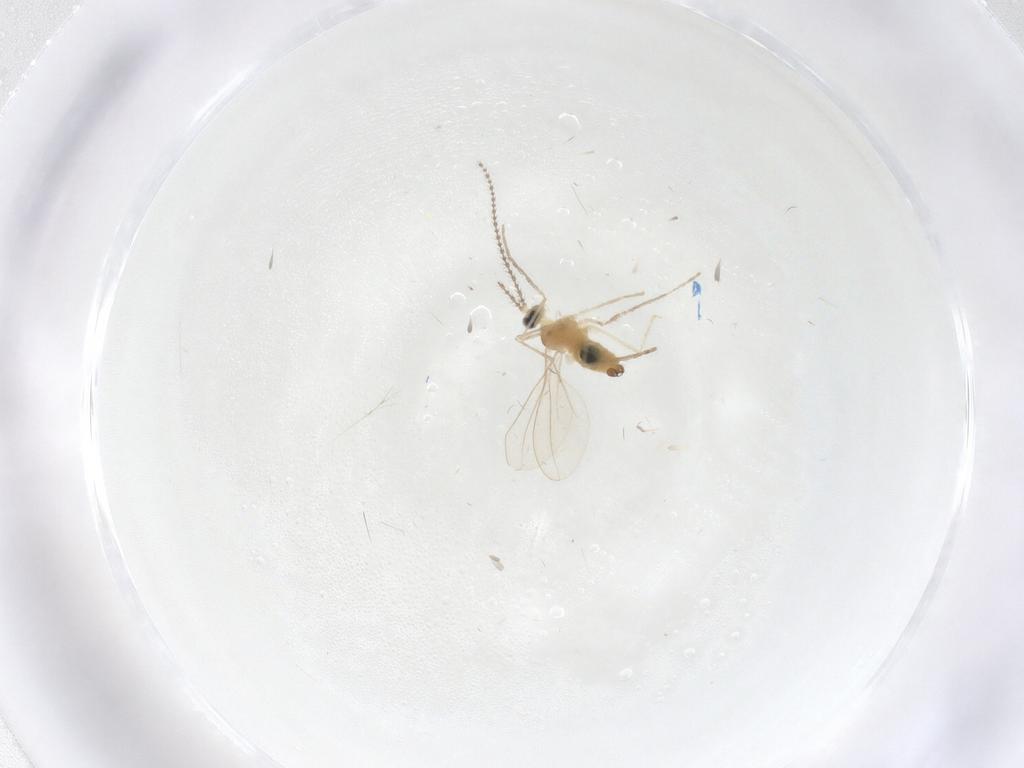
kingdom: Animalia
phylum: Arthropoda
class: Insecta
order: Diptera
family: Cecidomyiidae
